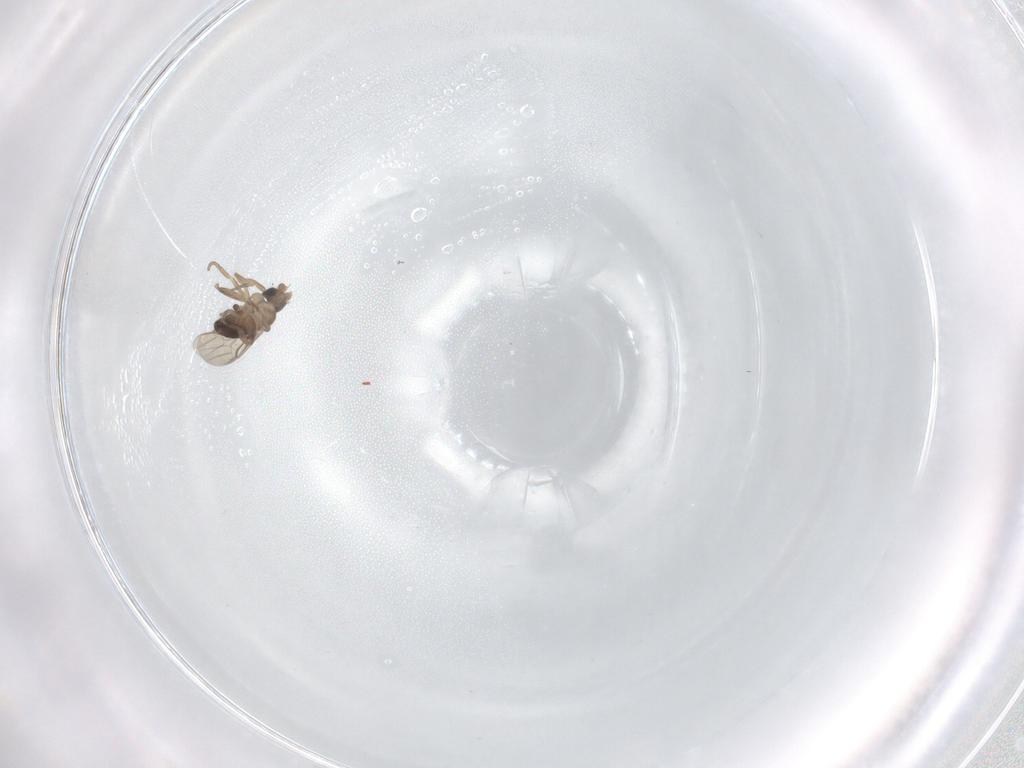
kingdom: Animalia
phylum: Arthropoda
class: Insecta
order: Diptera
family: Phoridae
